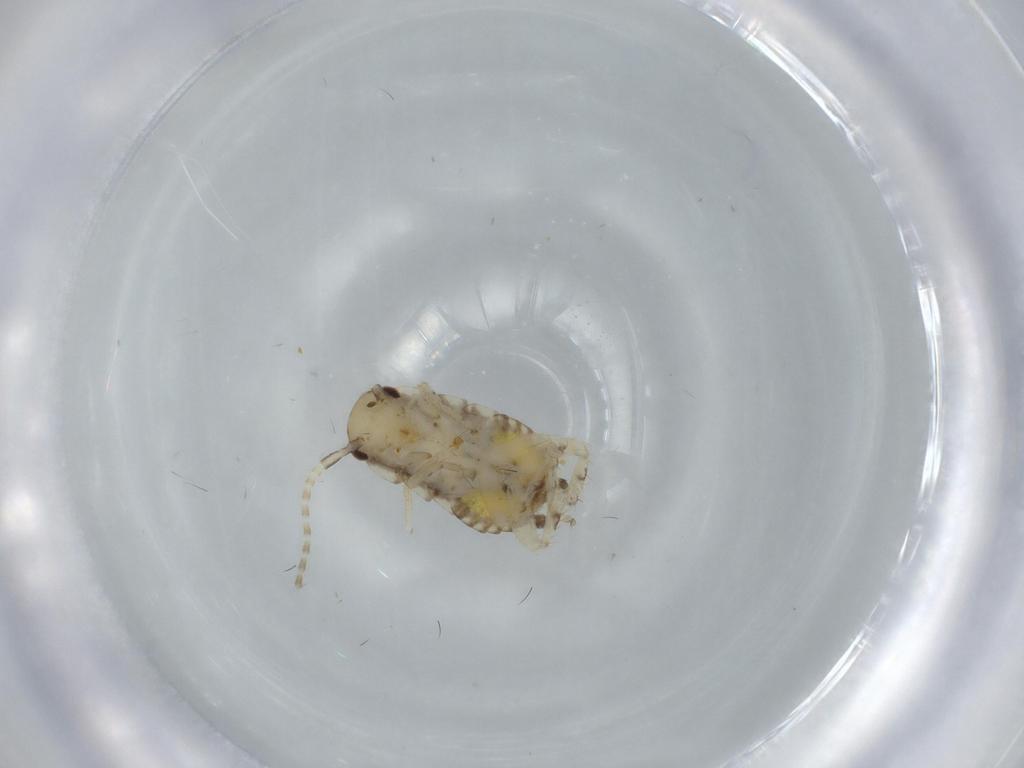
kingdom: Animalia
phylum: Arthropoda
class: Insecta
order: Blattodea
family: Ectobiidae
